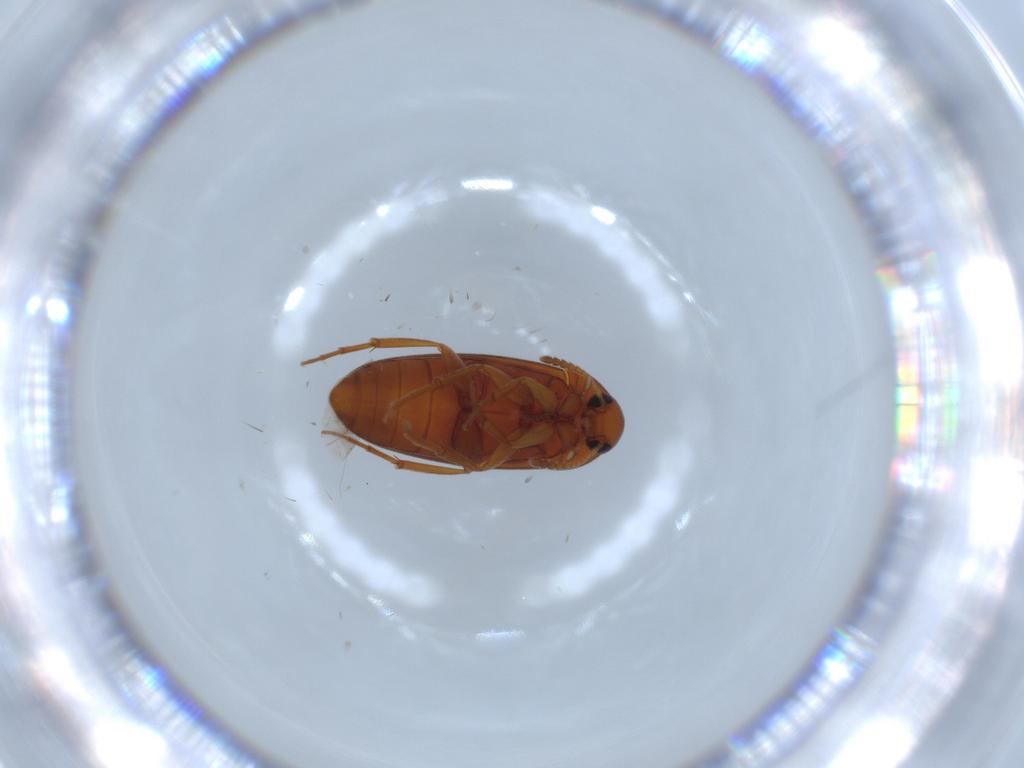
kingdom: Animalia
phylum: Arthropoda
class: Insecta
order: Coleoptera
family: Scraptiidae
